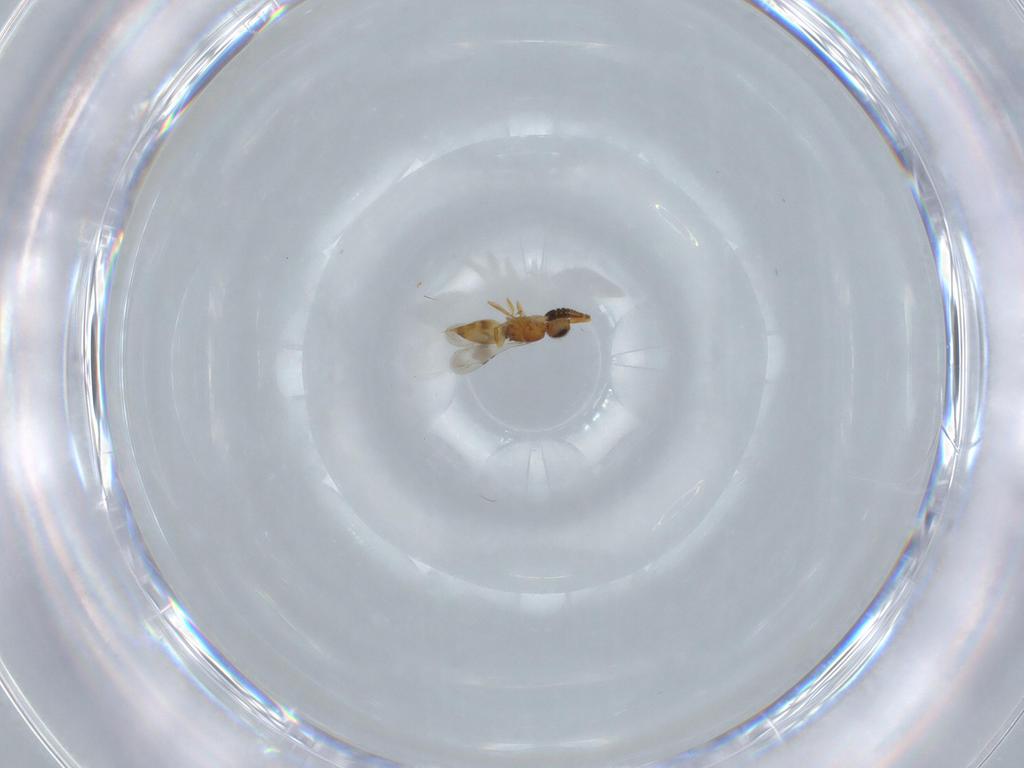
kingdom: Animalia
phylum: Arthropoda
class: Insecta
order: Hymenoptera
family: Ceraphronidae
